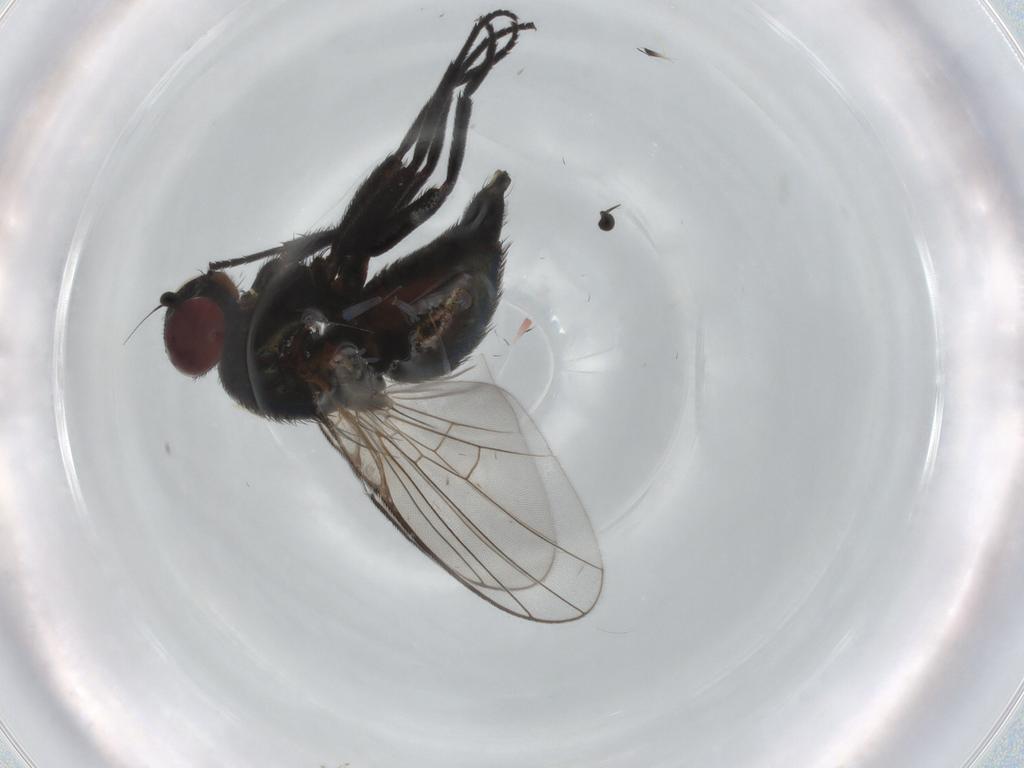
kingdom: Animalia
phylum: Arthropoda
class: Insecta
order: Diptera
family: Agromyzidae
